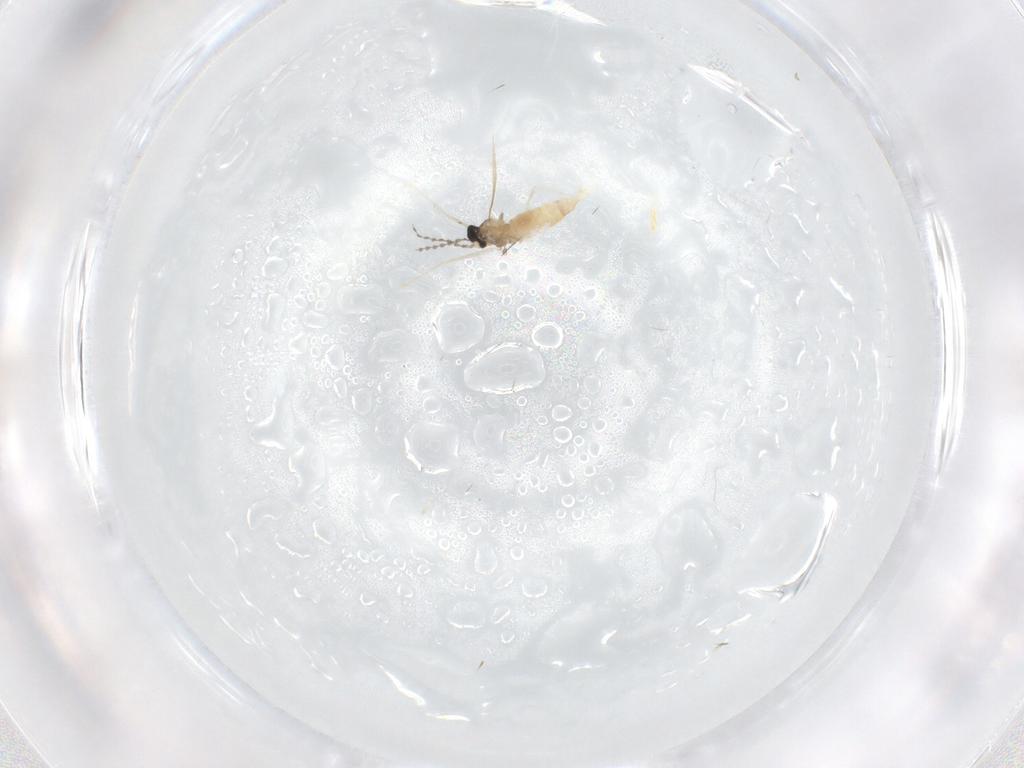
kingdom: Animalia
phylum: Arthropoda
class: Insecta
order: Diptera
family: Cecidomyiidae
